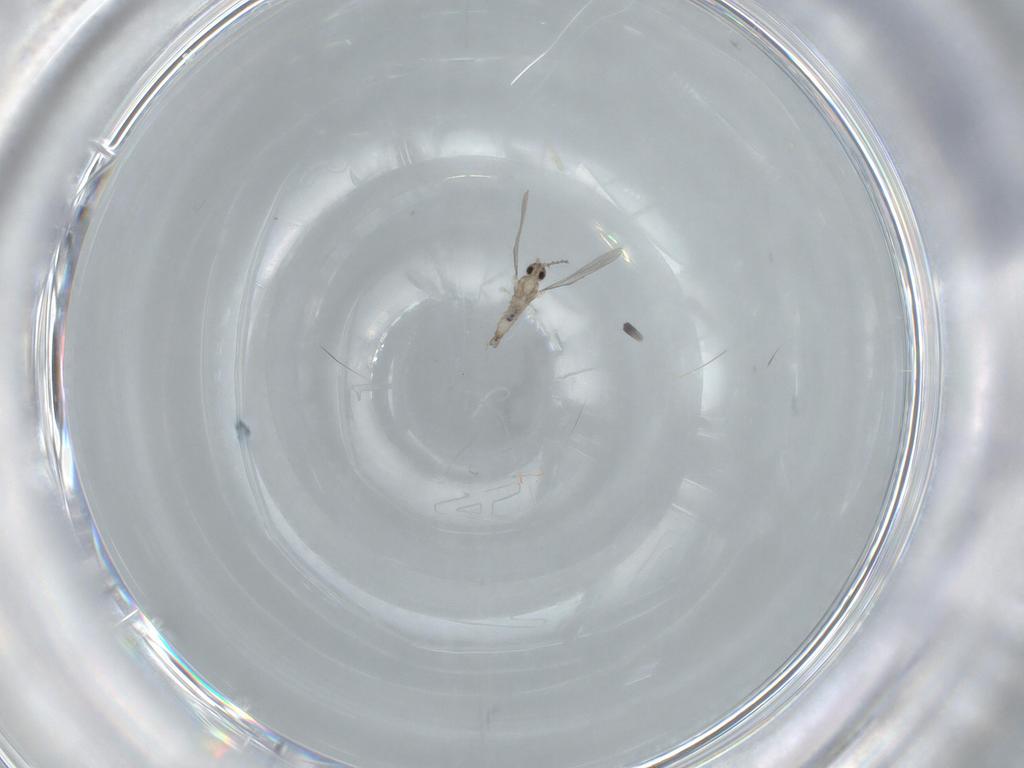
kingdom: Animalia
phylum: Arthropoda
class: Insecta
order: Diptera
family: Cecidomyiidae
